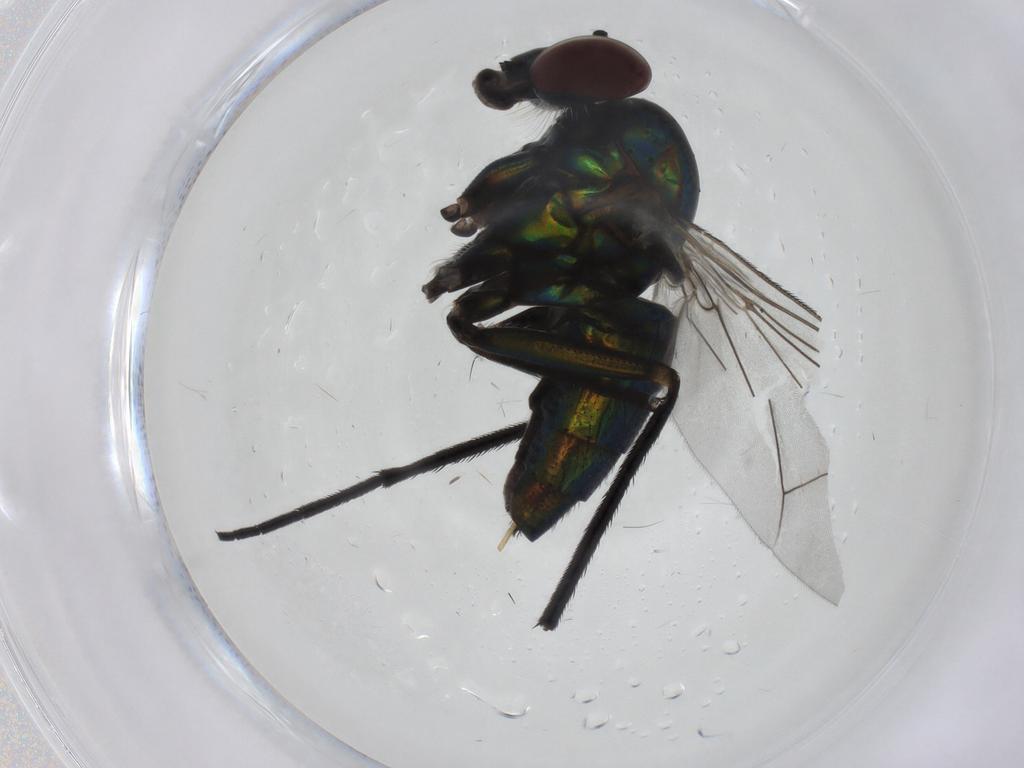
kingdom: Animalia
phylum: Arthropoda
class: Insecta
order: Diptera
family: Dolichopodidae
